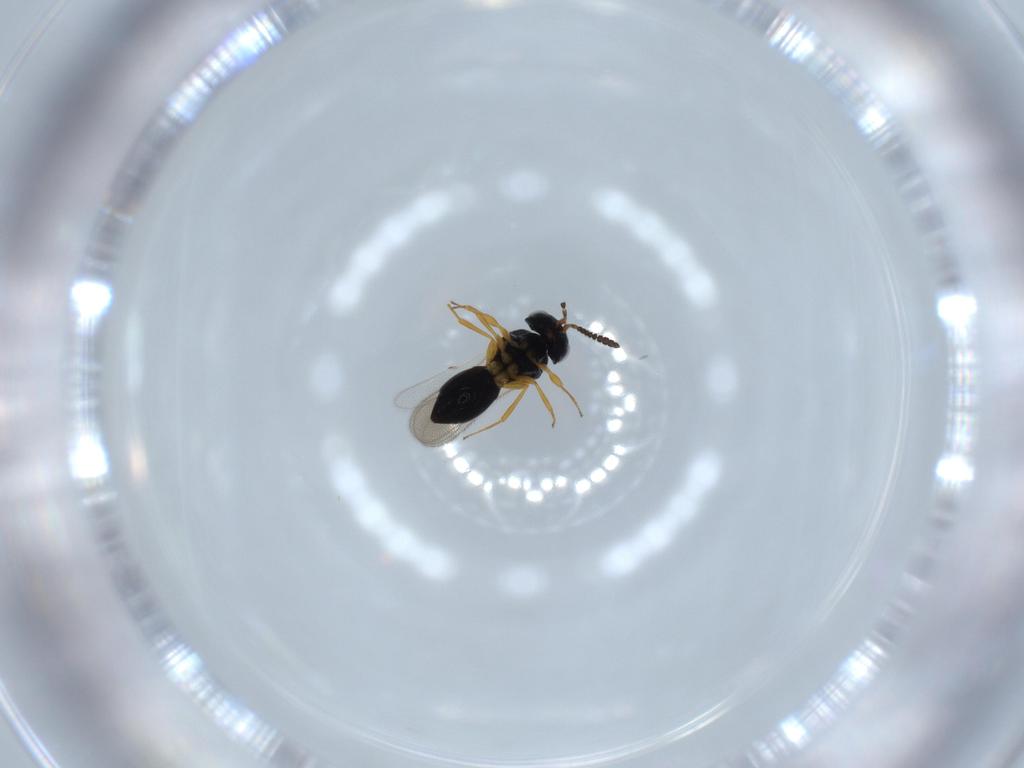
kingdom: Animalia
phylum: Arthropoda
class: Insecta
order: Hymenoptera
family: Scelionidae
